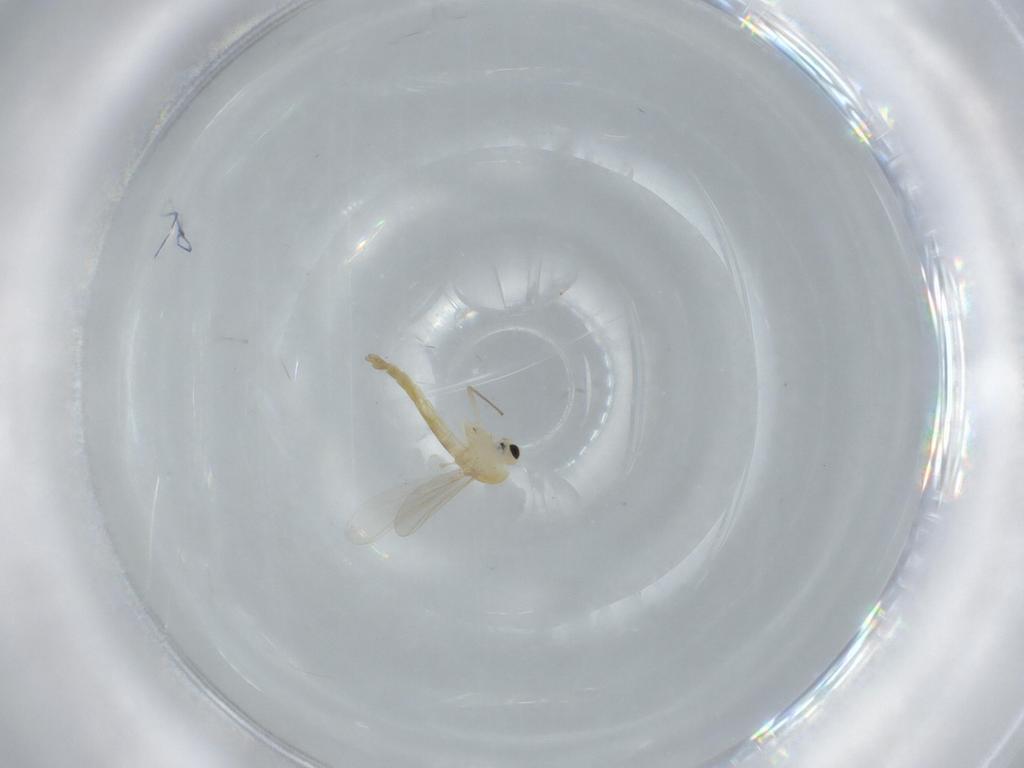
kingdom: Animalia
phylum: Arthropoda
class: Insecta
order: Diptera
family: Chironomidae
